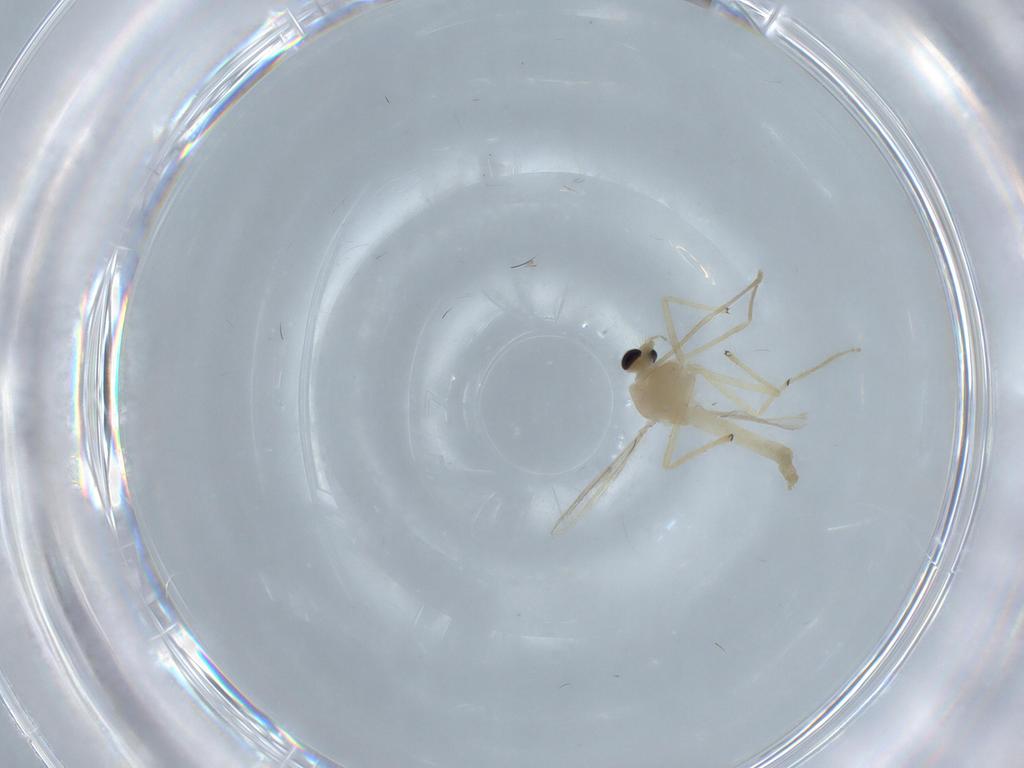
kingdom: Animalia
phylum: Arthropoda
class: Insecta
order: Diptera
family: Chironomidae
